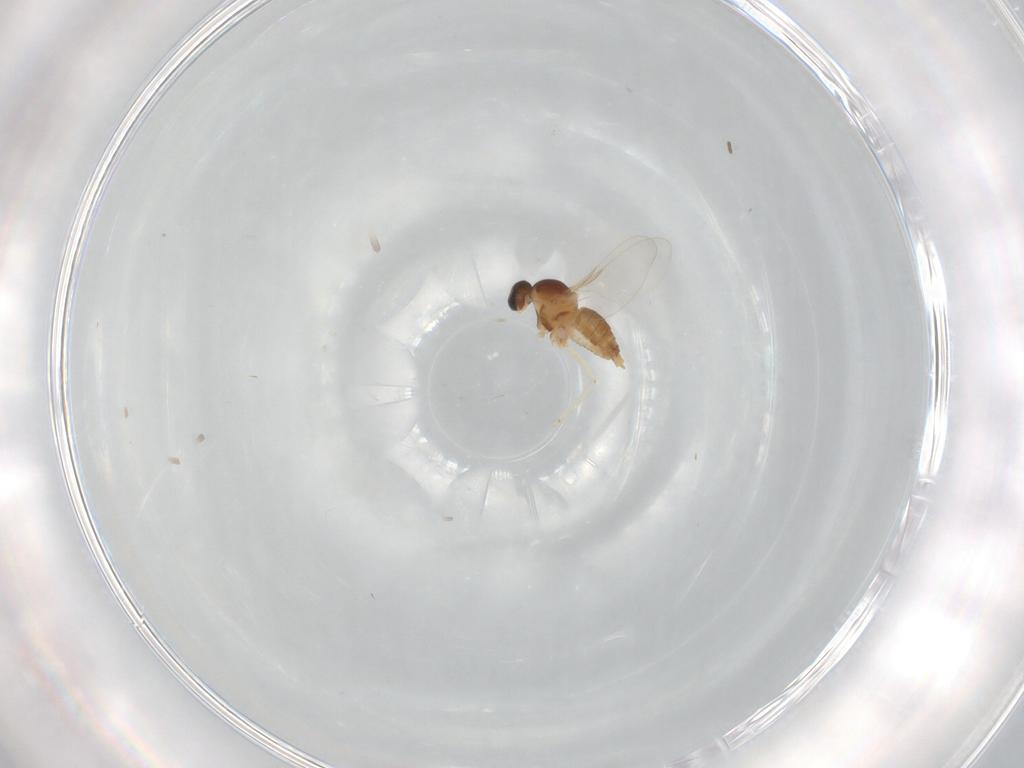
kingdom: Animalia
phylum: Arthropoda
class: Insecta
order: Diptera
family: Cecidomyiidae
